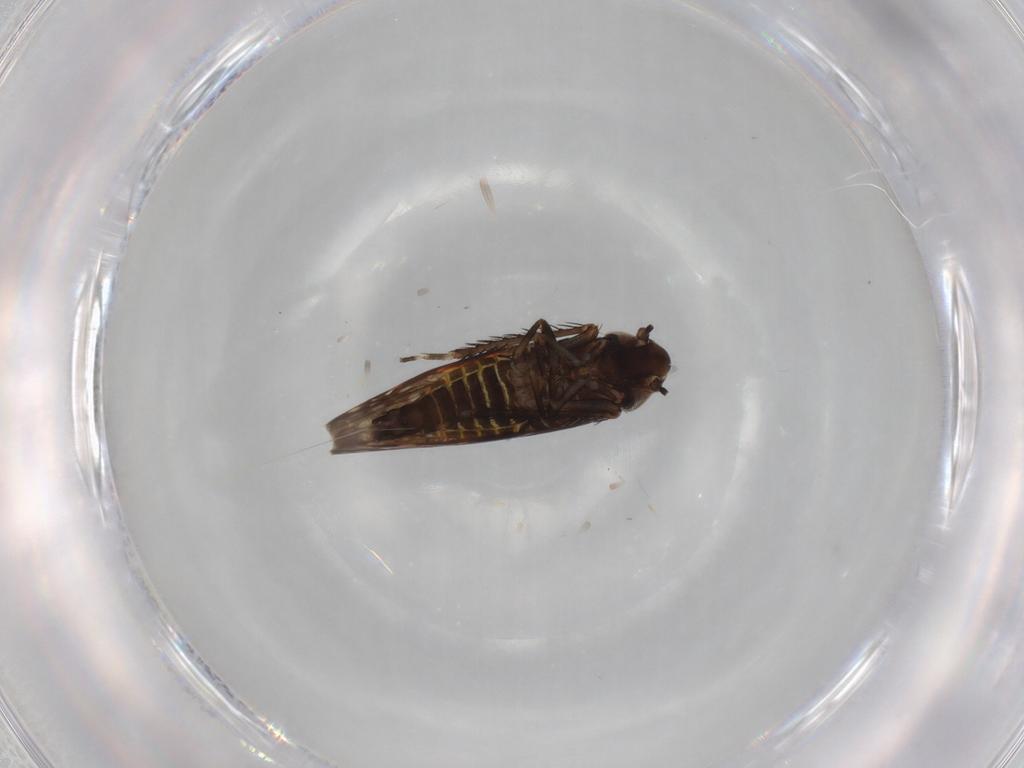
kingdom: Animalia
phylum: Arthropoda
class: Insecta
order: Hemiptera
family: Cicadellidae
